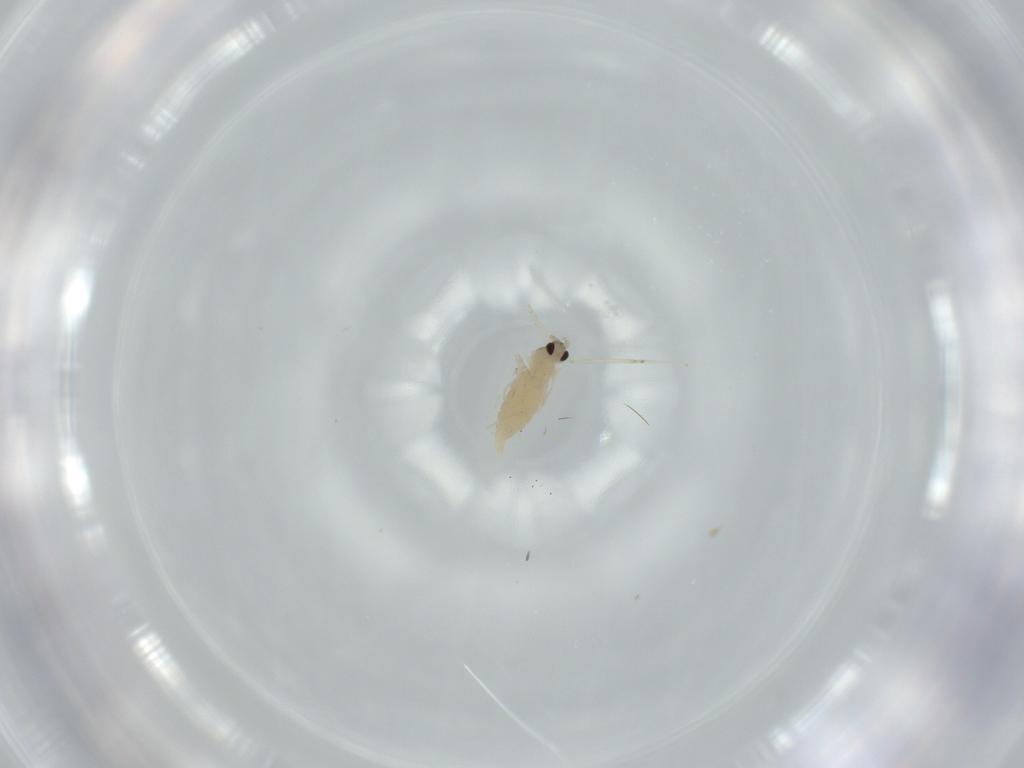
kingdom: Animalia
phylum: Arthropoda
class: Insecta
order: Diptera
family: Cecidomyiidae
